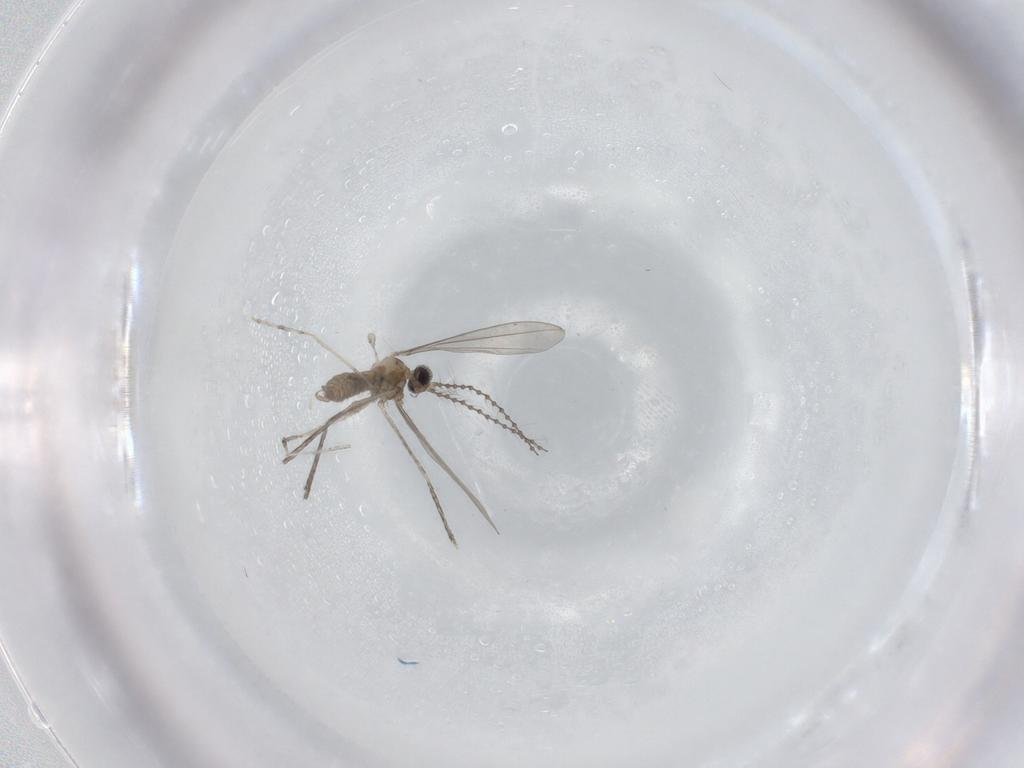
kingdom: Animalia
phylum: Arthropoda
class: Insecta
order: Diptera
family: Cecidomyiidae
